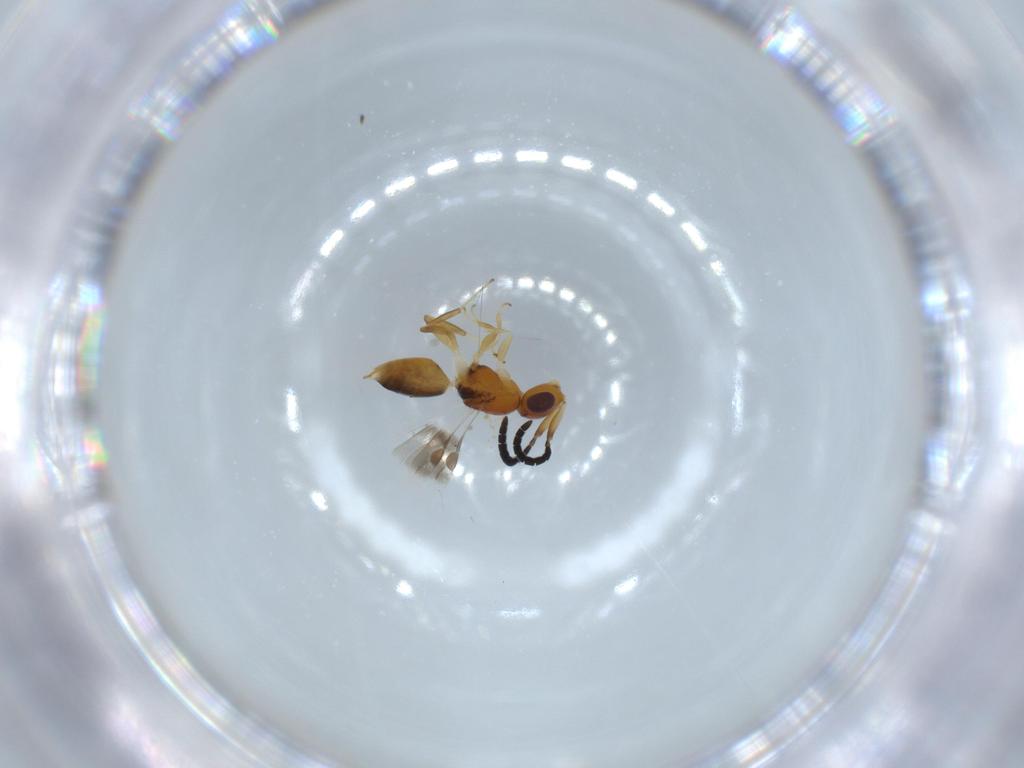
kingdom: Animalia
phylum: Arthropoda
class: Insecta
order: Hymenoptera
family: Megaspilidae
